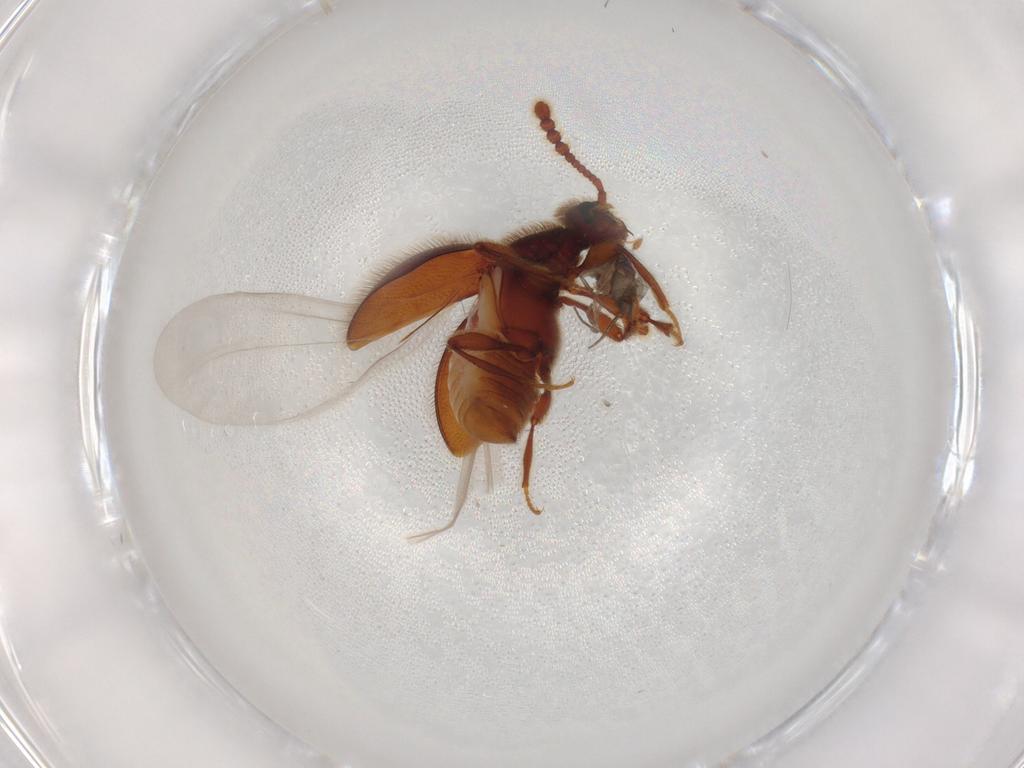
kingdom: Animalia
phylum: Arthropoda
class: Insecta
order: Coleoptera
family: Staphylinidae
